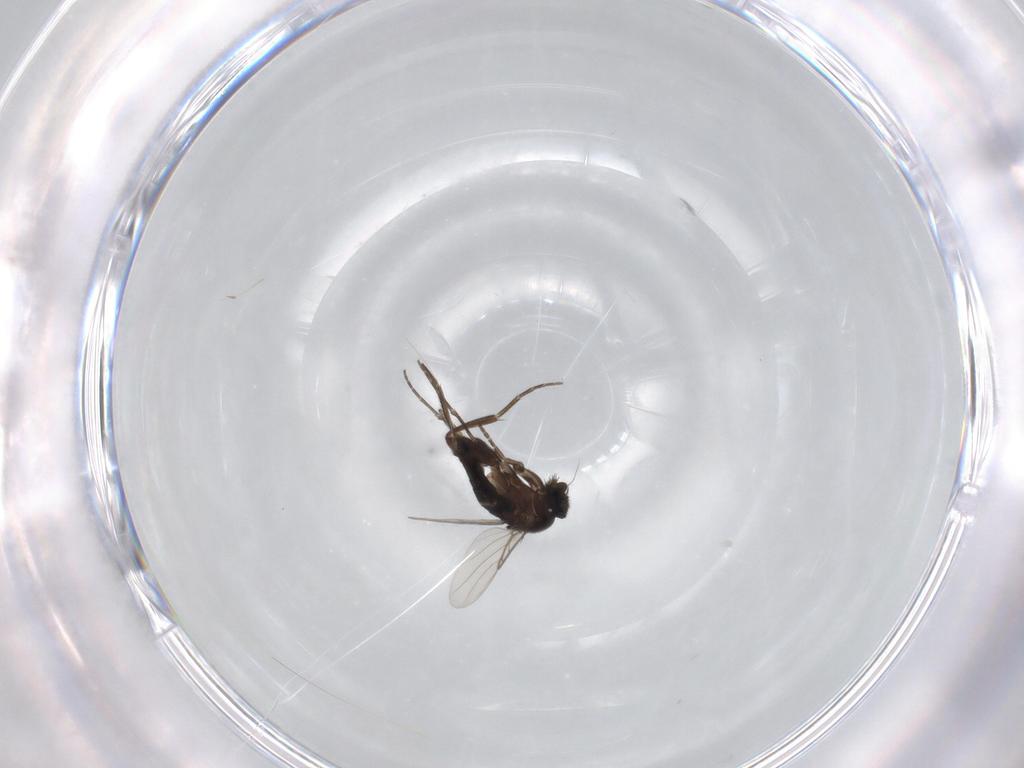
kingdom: Animalia
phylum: Arthropoda
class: Insecta
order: Diptera
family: Phoridae
